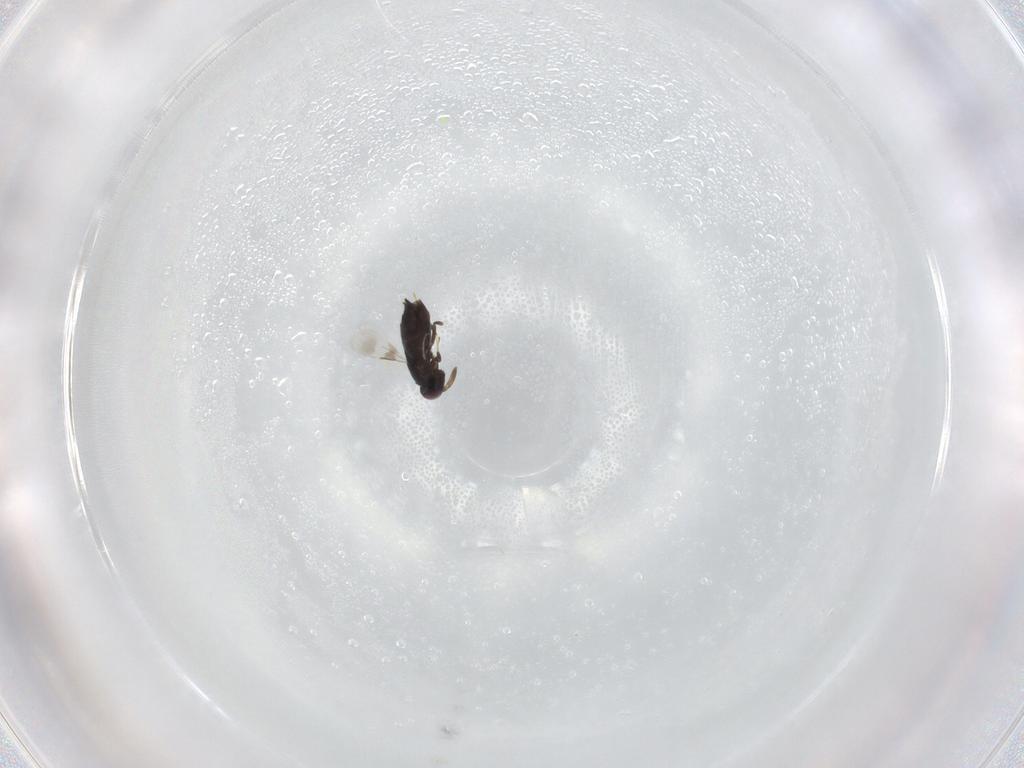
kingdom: Animalia
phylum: Arthropoda
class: Insecta
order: Hymenoptera
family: Signiphoridae
